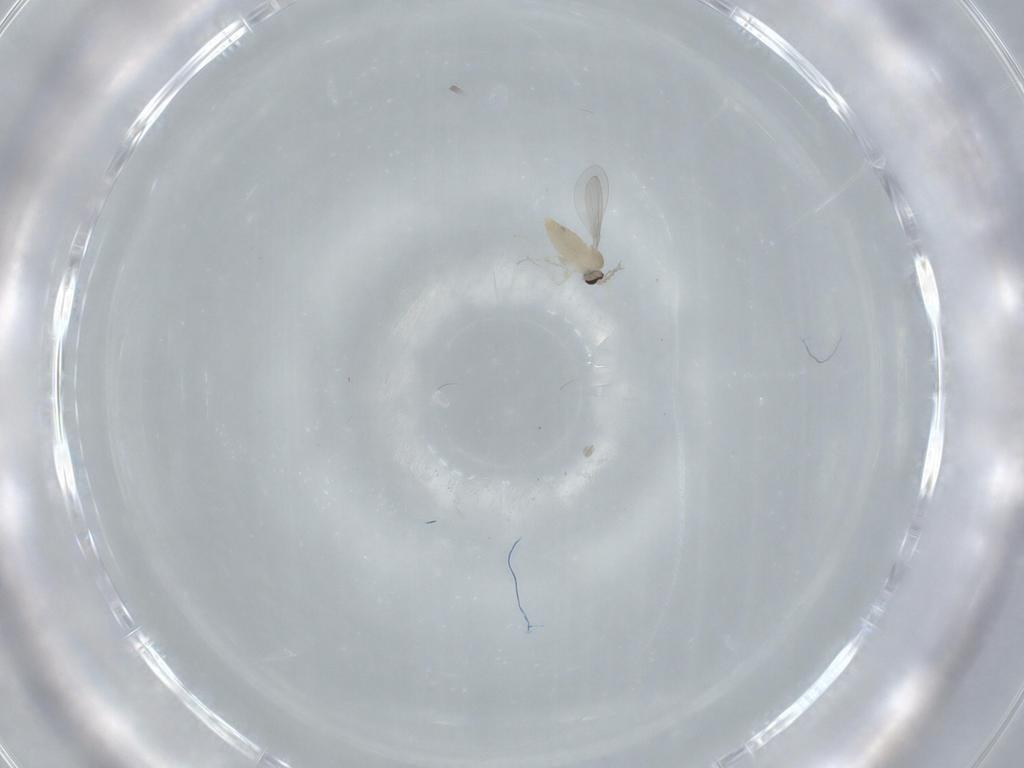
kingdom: Animalia
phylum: Arthropoda
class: Insecta
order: Diptera
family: Cecidomyiidae
